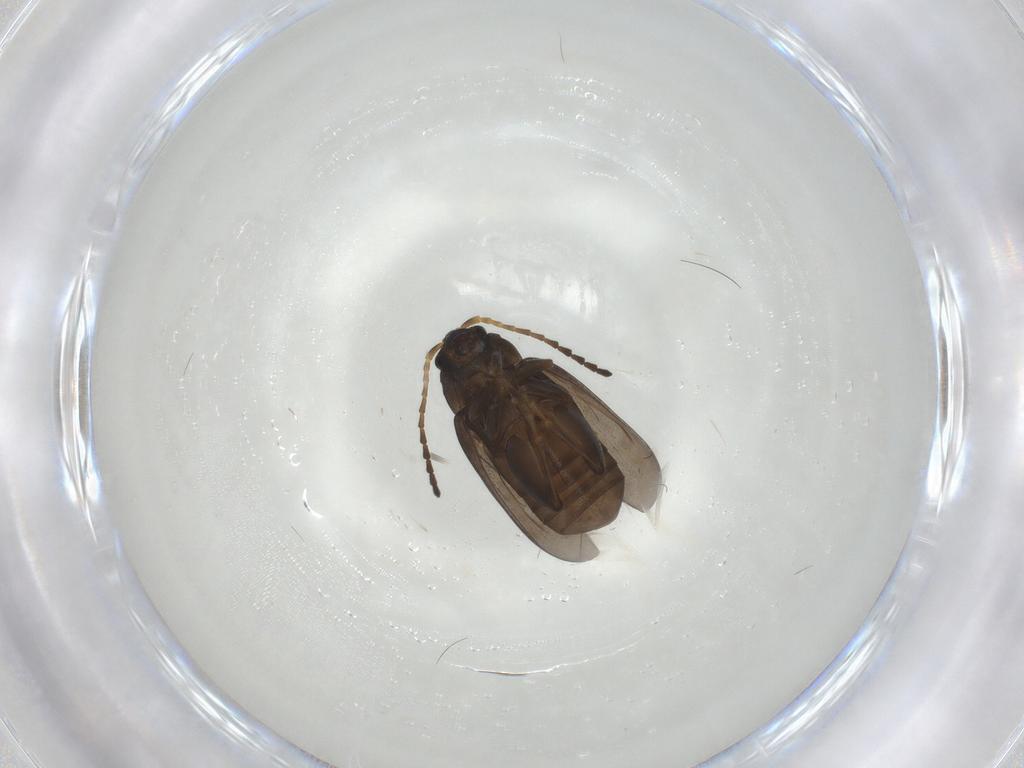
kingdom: Animalia
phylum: Arthropoda
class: Insecta
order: Coleoptera
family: Chrysomelidae
